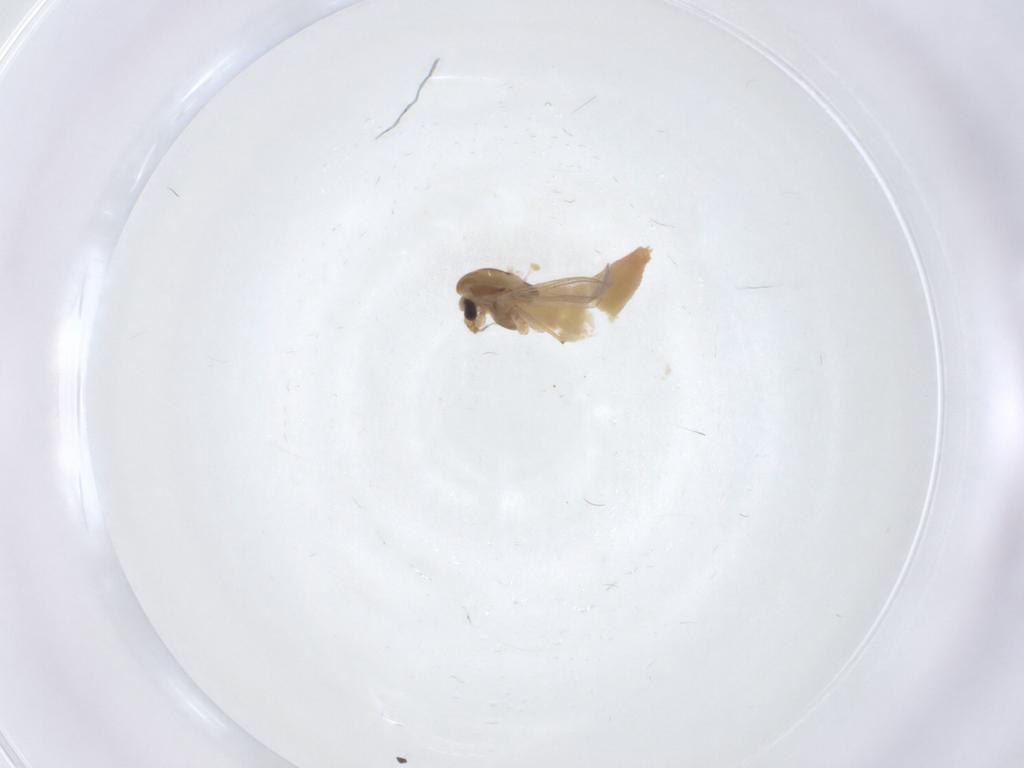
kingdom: Animalia
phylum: Arthropoda
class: Insecta
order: Diptera
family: Chironomidae
